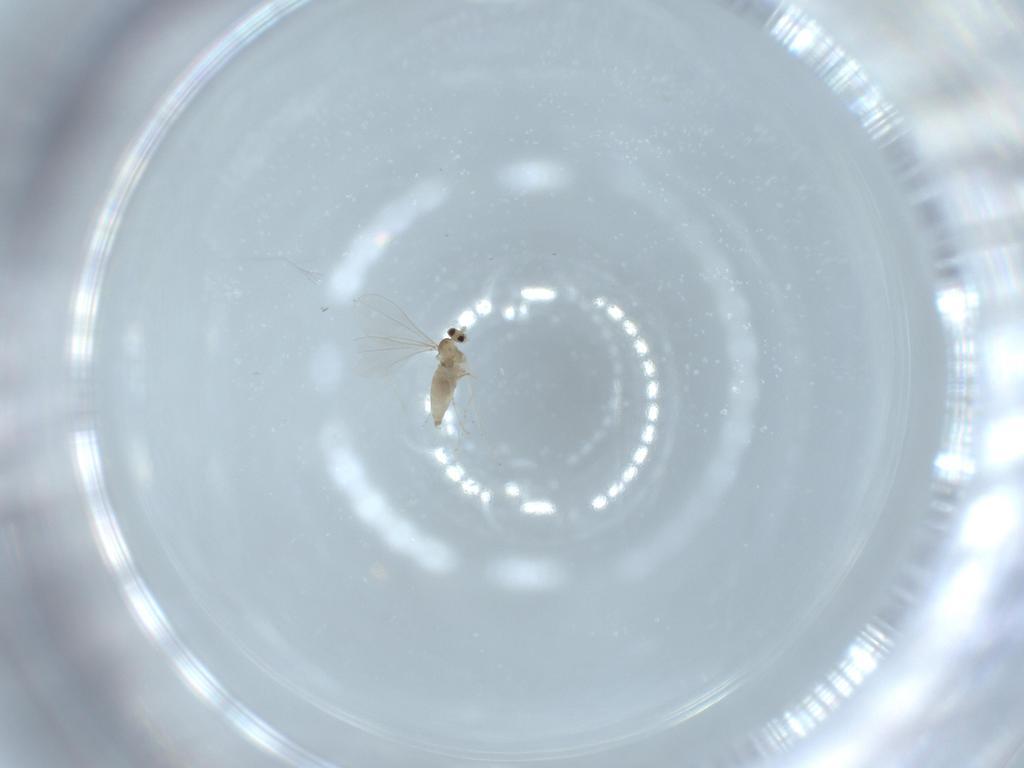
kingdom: Animalia
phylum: Arthropoda
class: Insecta
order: Diptera
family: Cecidomyiidae
